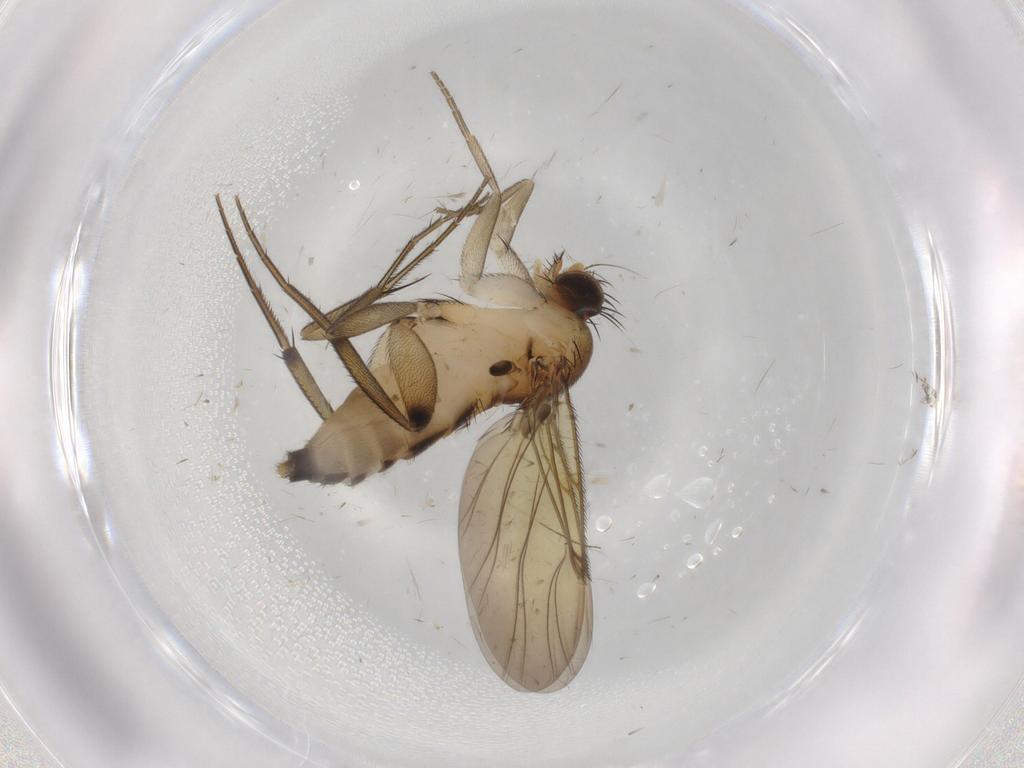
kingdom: Animalia
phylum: Arthropoda
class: Insecta
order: Diptera
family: Phoridae
